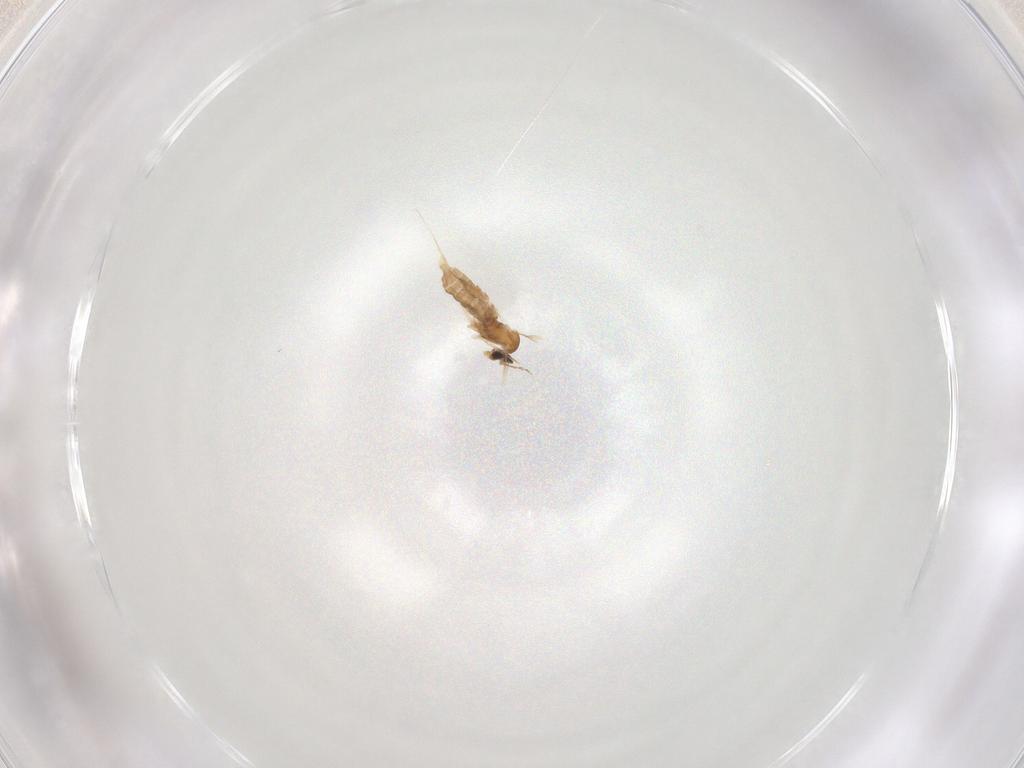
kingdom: Animalia
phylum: Arthropoda
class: Insecta
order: Diptera
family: Cecidomyiidae
